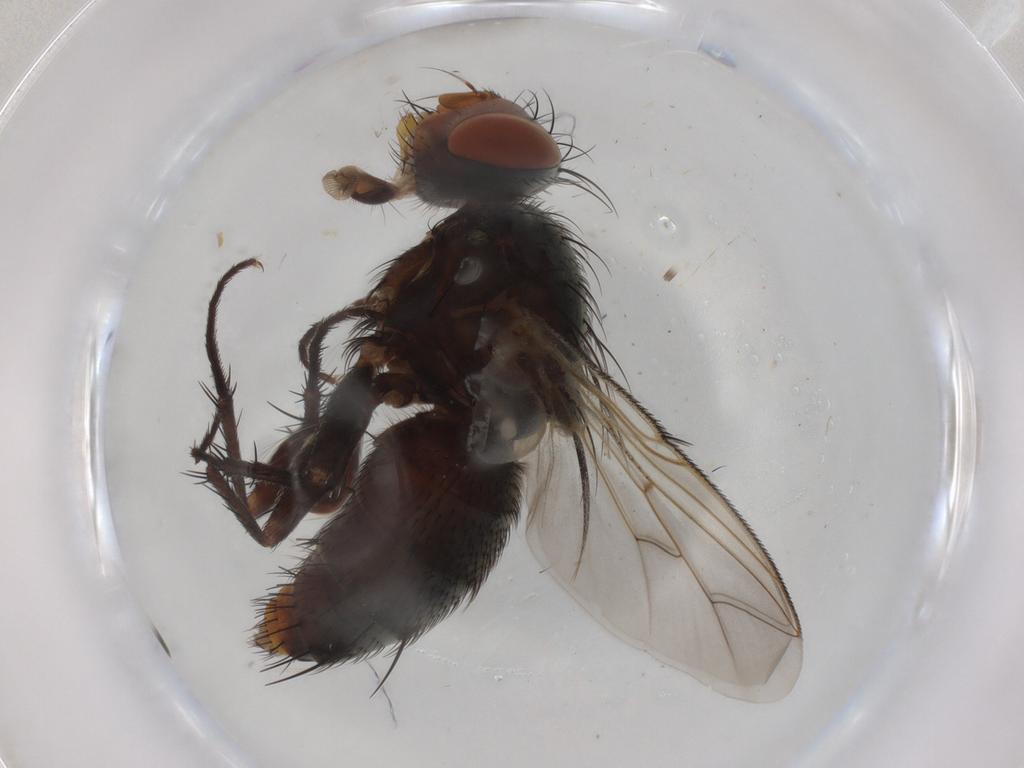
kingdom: Animalia
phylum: Arthropoda
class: Insecta
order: Diptera
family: Sarcophagidae
